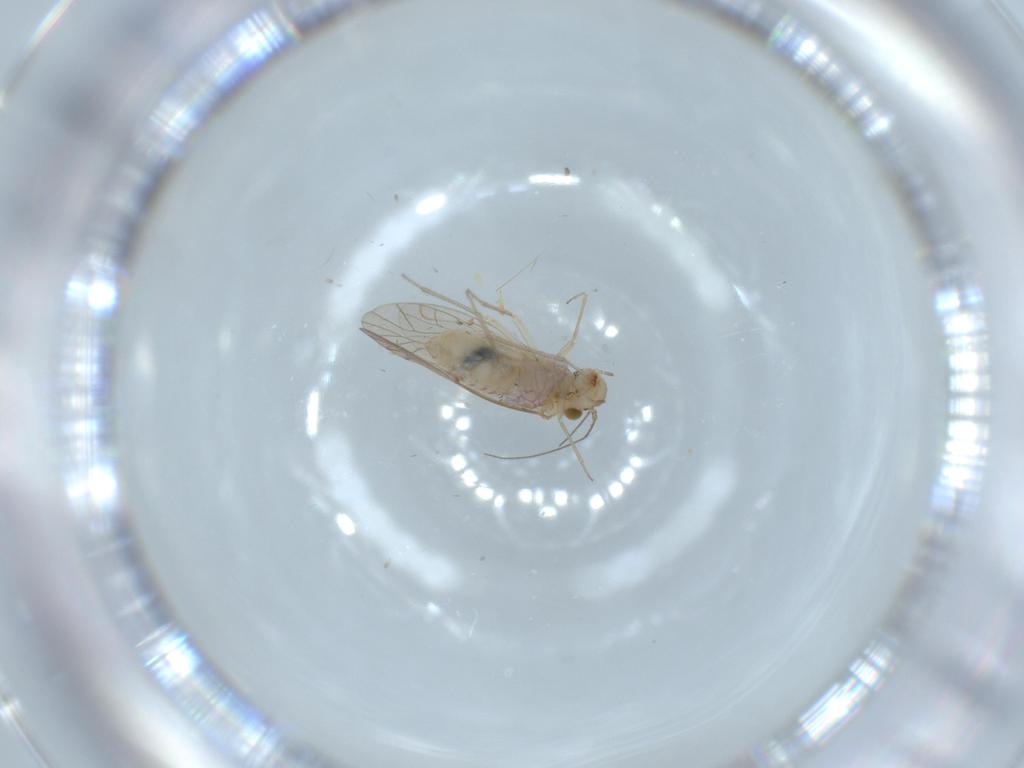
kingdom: Animalia
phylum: Arthropoda
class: Insecta
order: Psocodea
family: Lachesillidae
